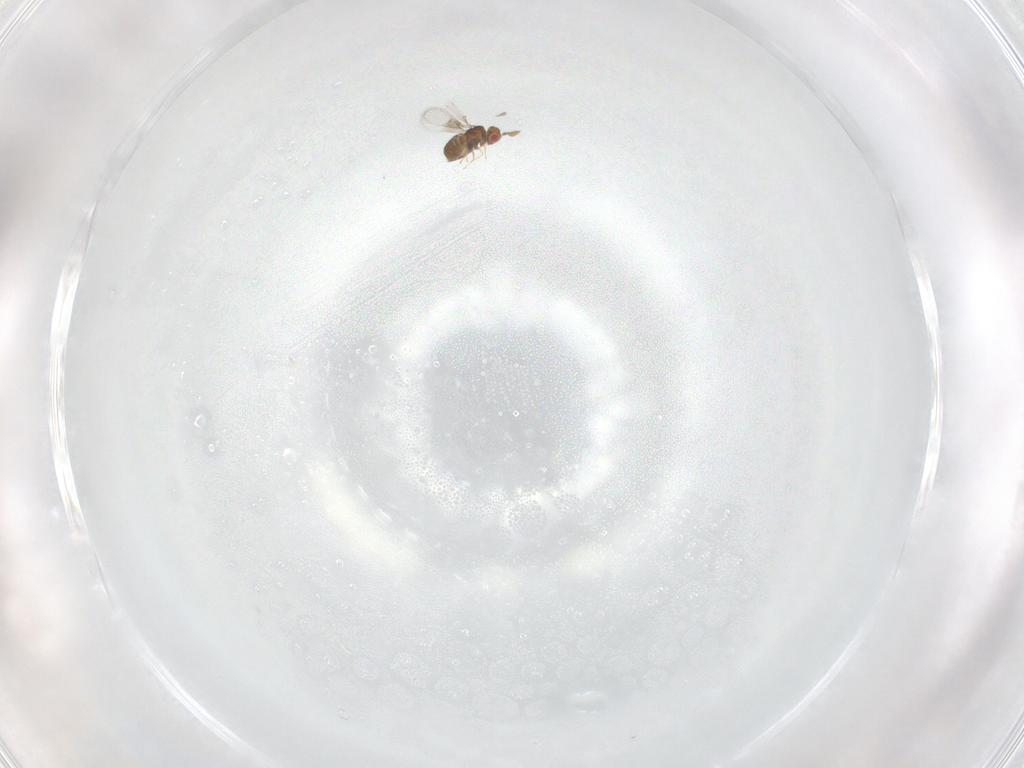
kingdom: Animalia
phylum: Arthropoda
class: Insecta
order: Hymenoptera
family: Trichogrammatidae
